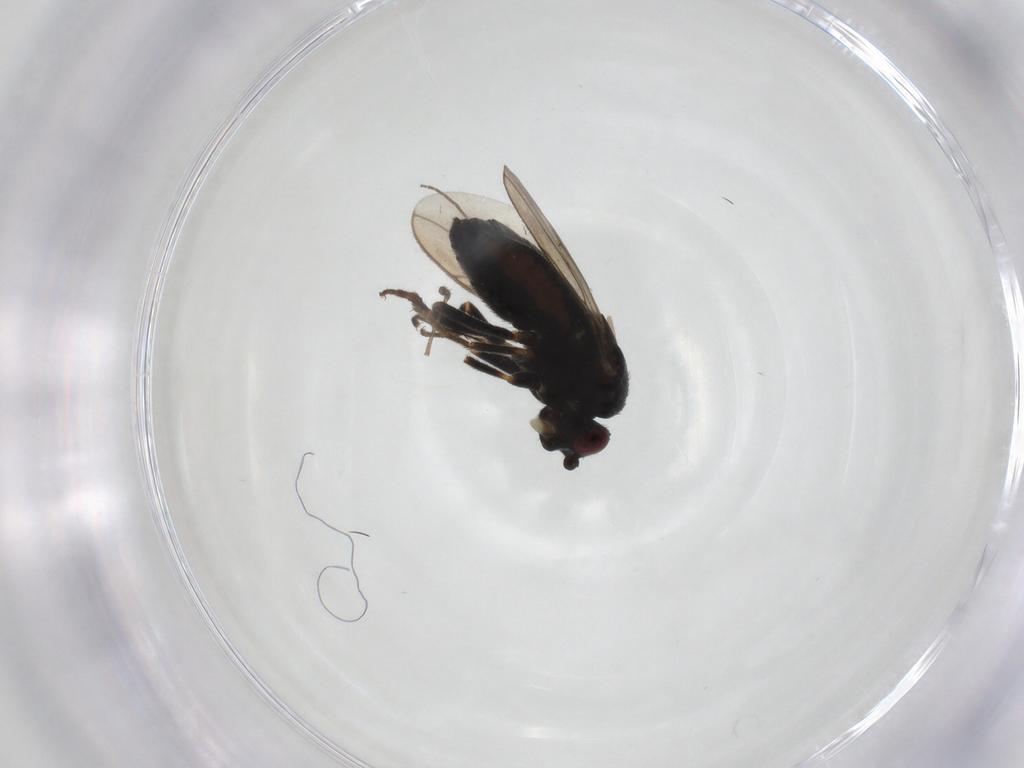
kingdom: Animalia
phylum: Arthropoda
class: Insecta
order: Diptera
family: Sphaeroceridae
